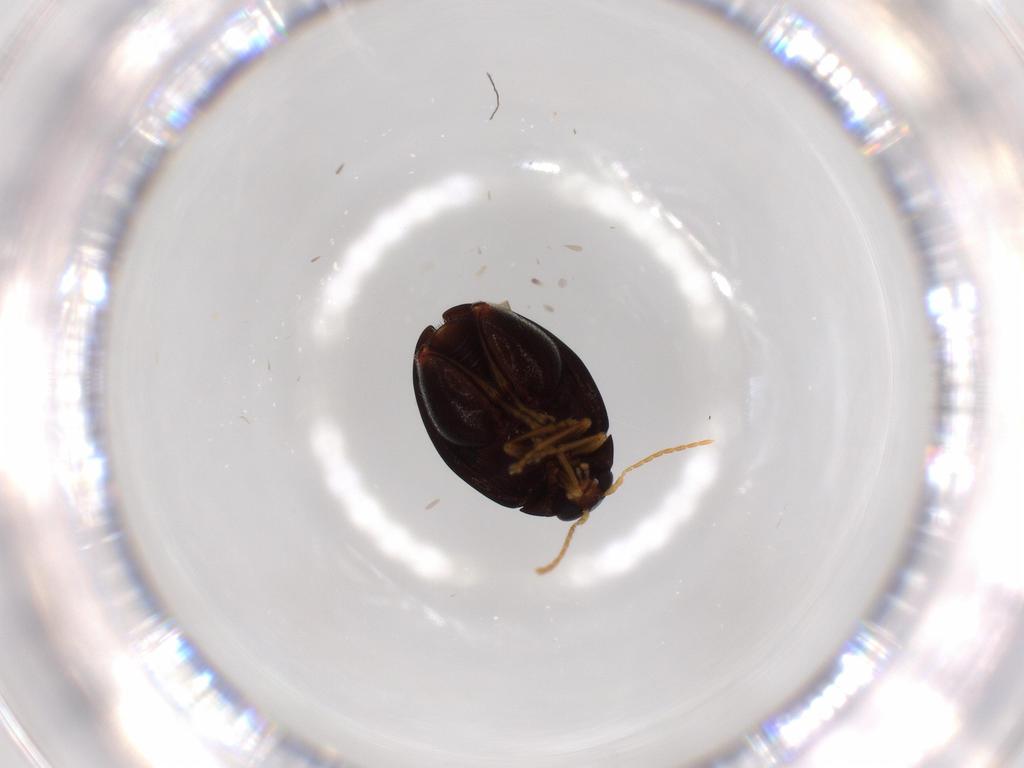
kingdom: Animalia
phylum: Arthropoda
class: Insecta
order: Coleoptera
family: Chrysomelidae
